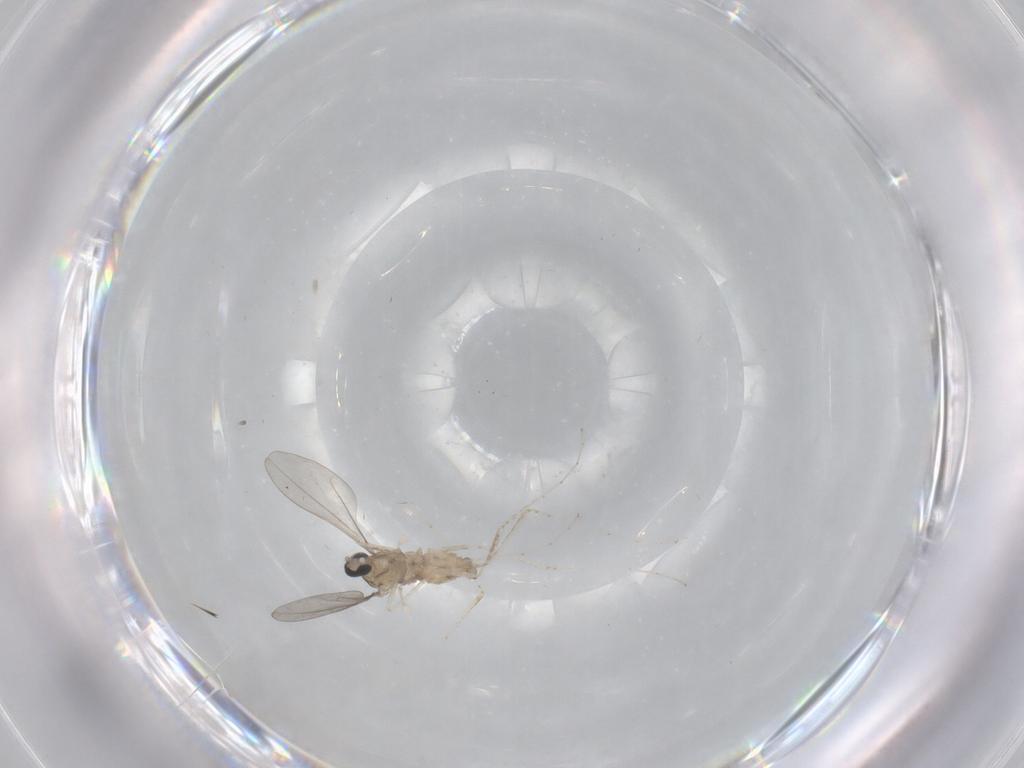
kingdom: Animalia
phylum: Arthropoda
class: Insecta
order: Diptera
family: Cecidomyiidae
